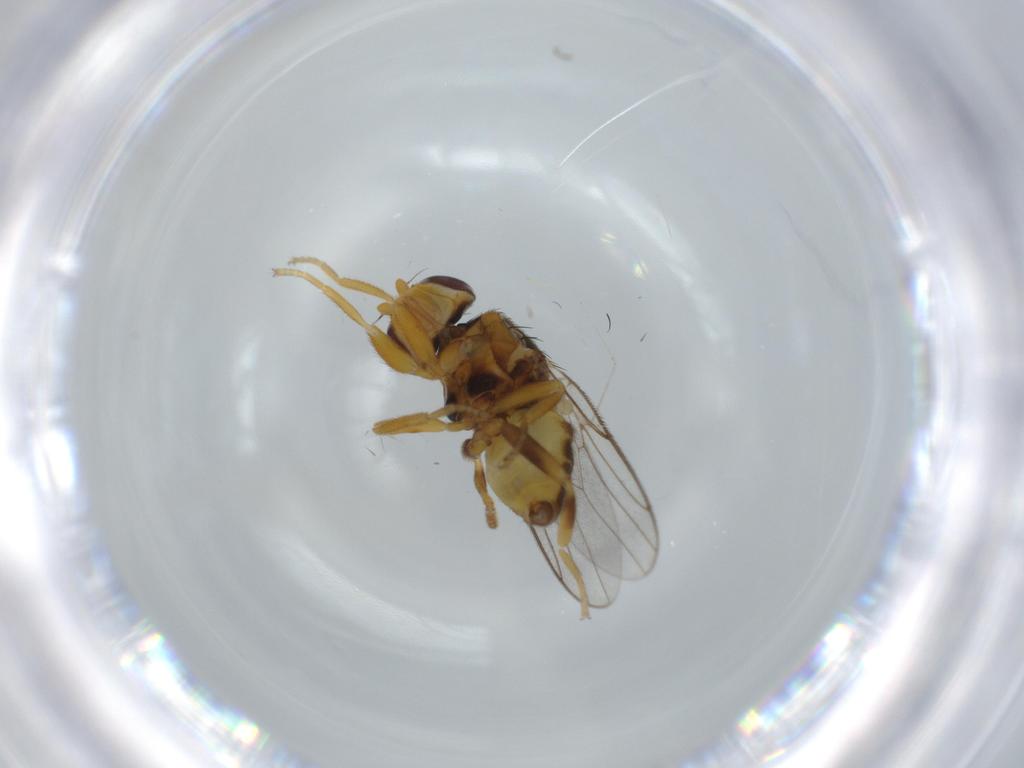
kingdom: Animalia
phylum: Arthropoda
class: Insecta
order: Diptera
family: Chloropidae
